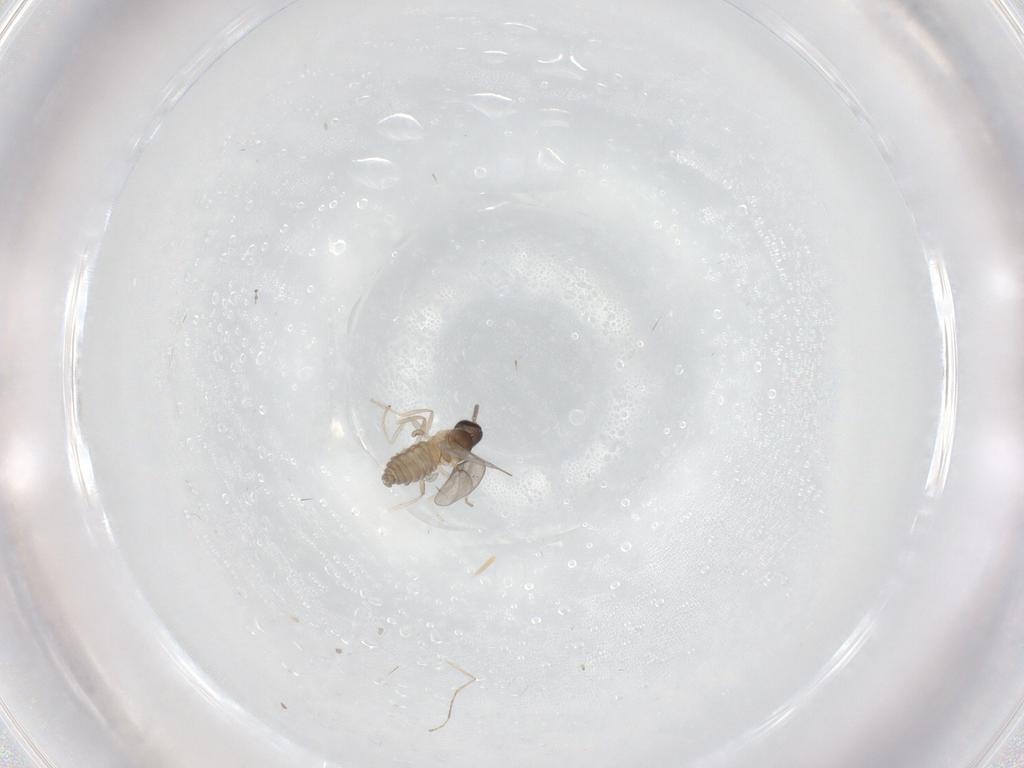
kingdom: Animalia
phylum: Arthropoda
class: Insecta
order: Diptera
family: Cecidomyiidae
